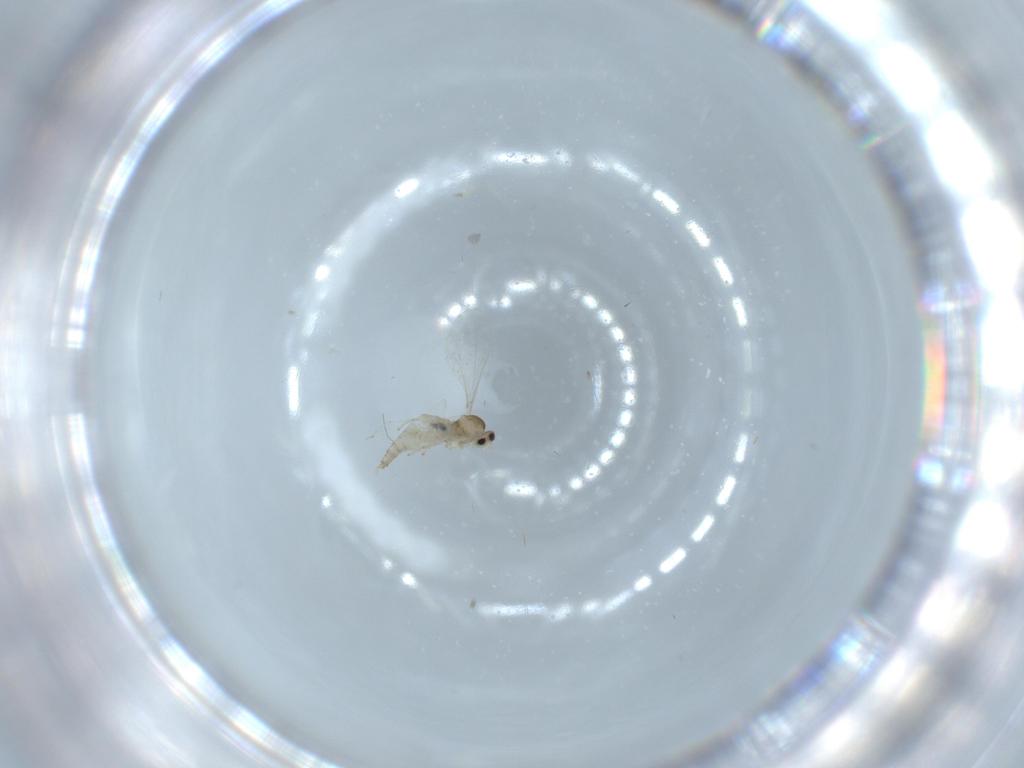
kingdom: Animalia
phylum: Arthropoda
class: Insecta
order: Diptera
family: Cecidomyiidae
